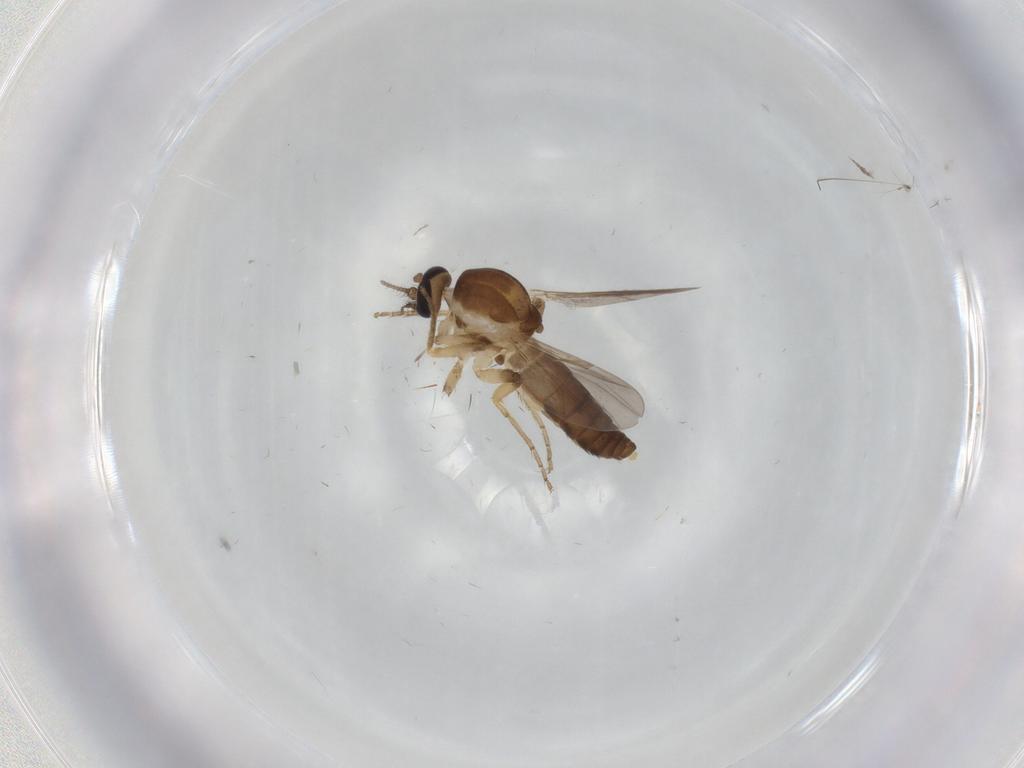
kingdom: Animalia
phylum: Arthropoda
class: Insecta
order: Diptera
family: Ceratopogonidae
